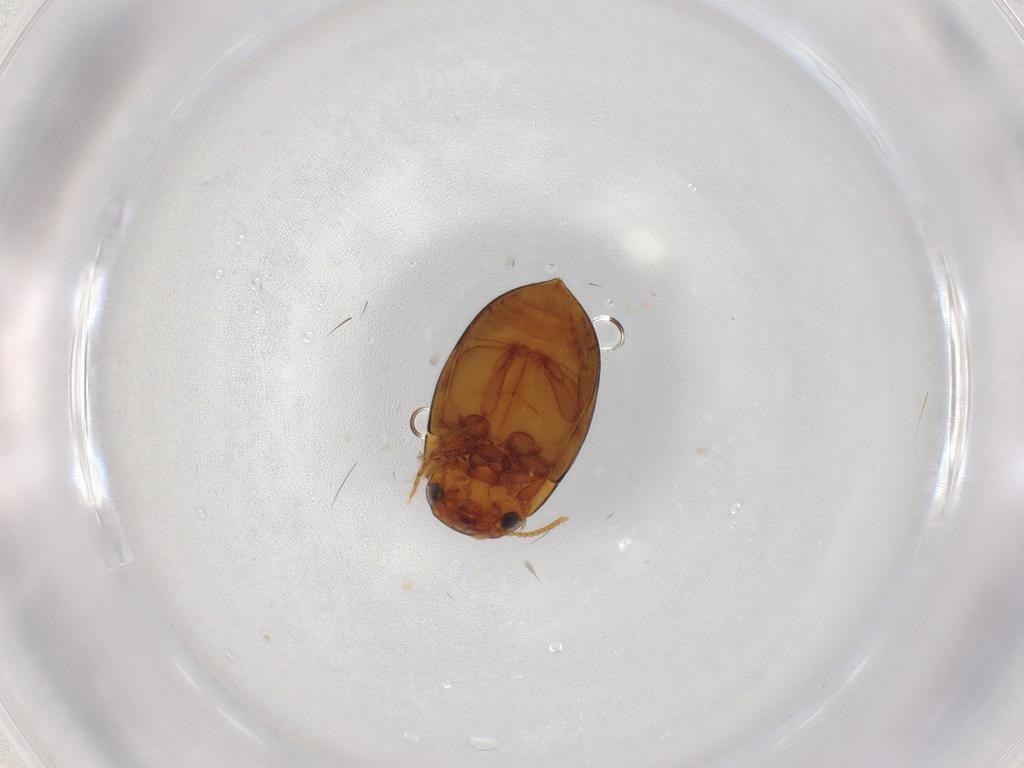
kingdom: Animalia
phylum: Arthropoda
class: Insecta
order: Coleoptera
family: Dytiscidae
